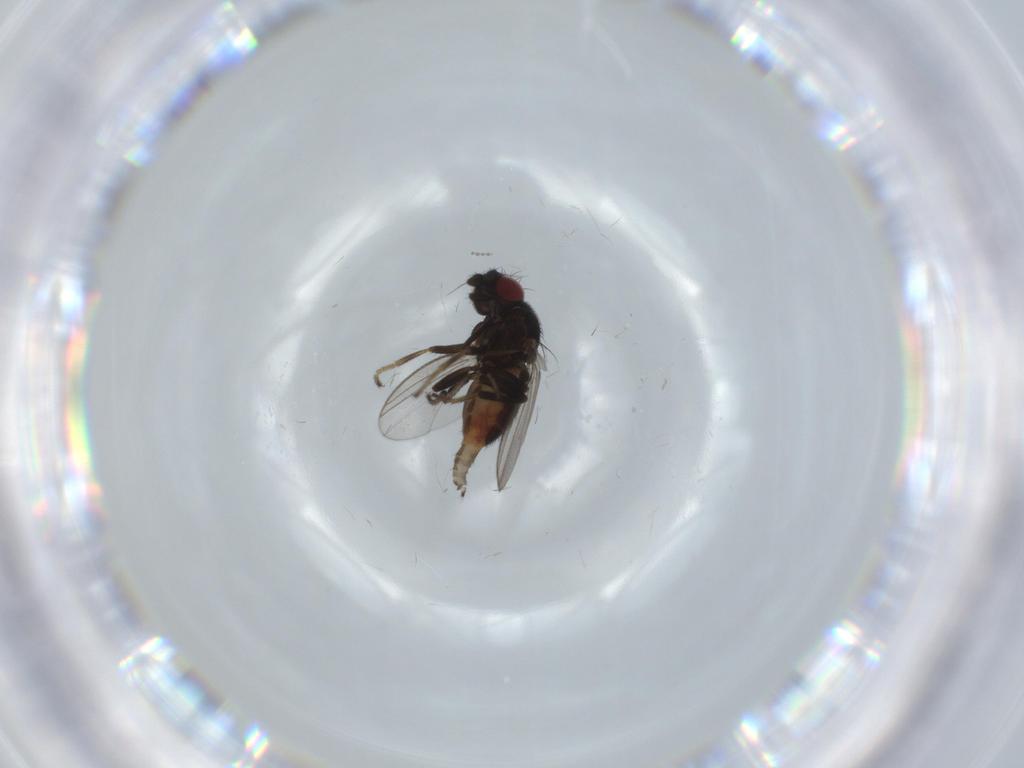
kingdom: Animalia
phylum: Arthropoda
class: Insecta
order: Diptera
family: Milichiidae
